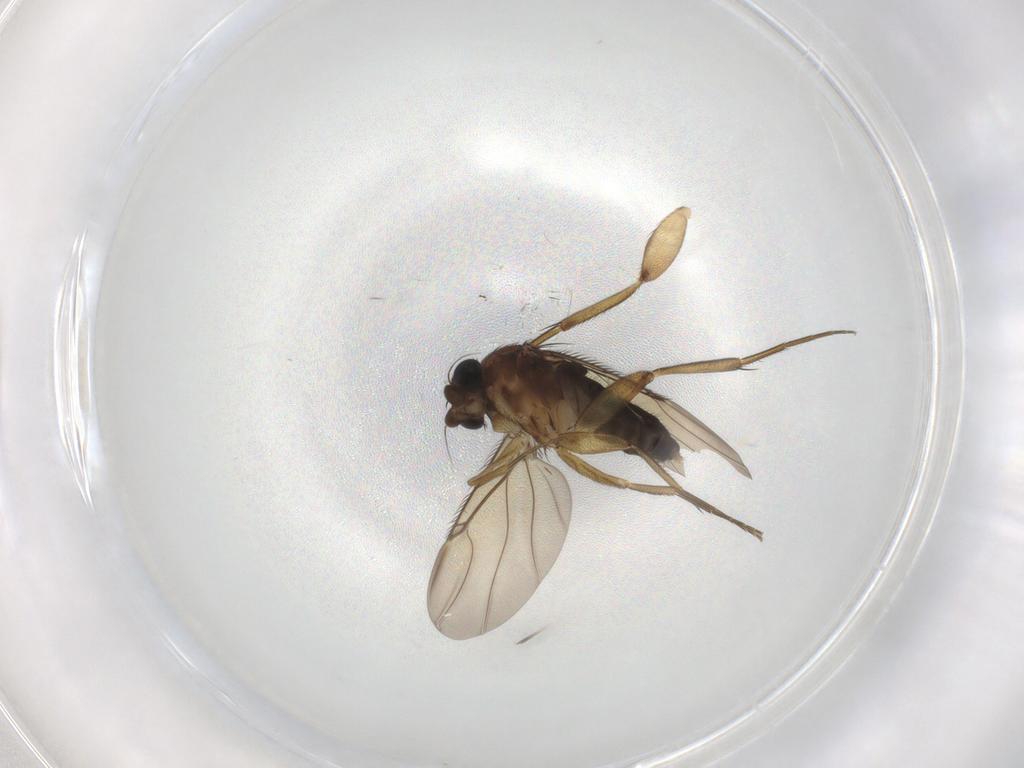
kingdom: Animalia
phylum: Arthropoda
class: Insecta
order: Diptera
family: Phoridae
